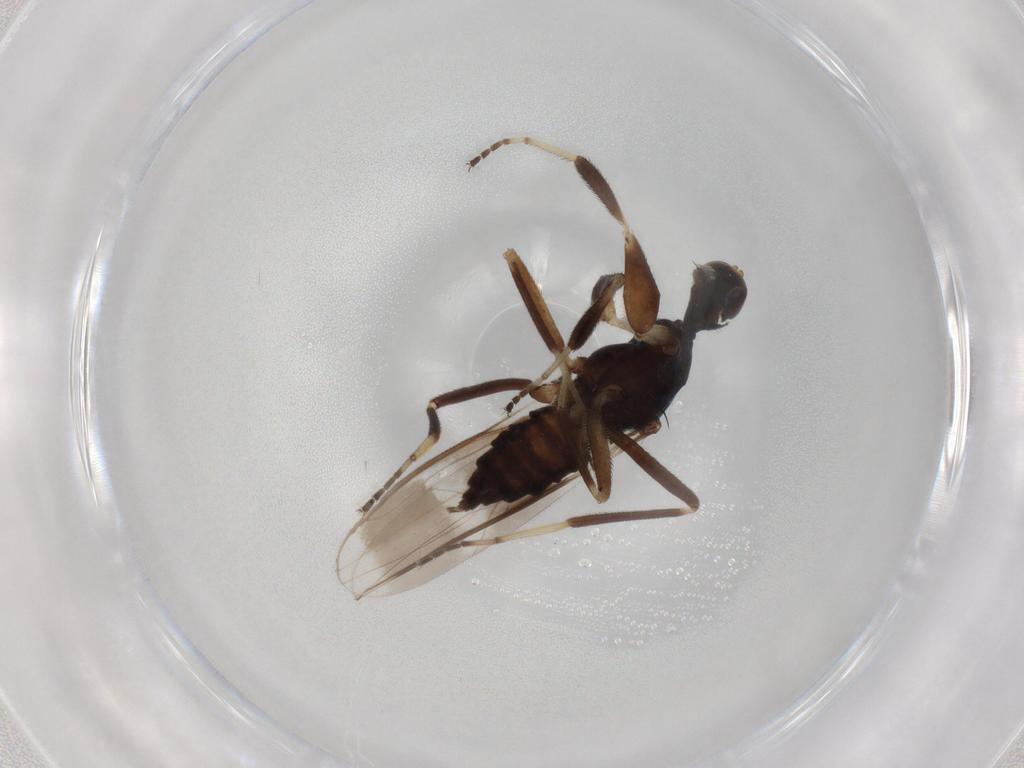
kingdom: Animalia
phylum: Arthropoda
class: Insecta
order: Diptera
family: Hybotidae
